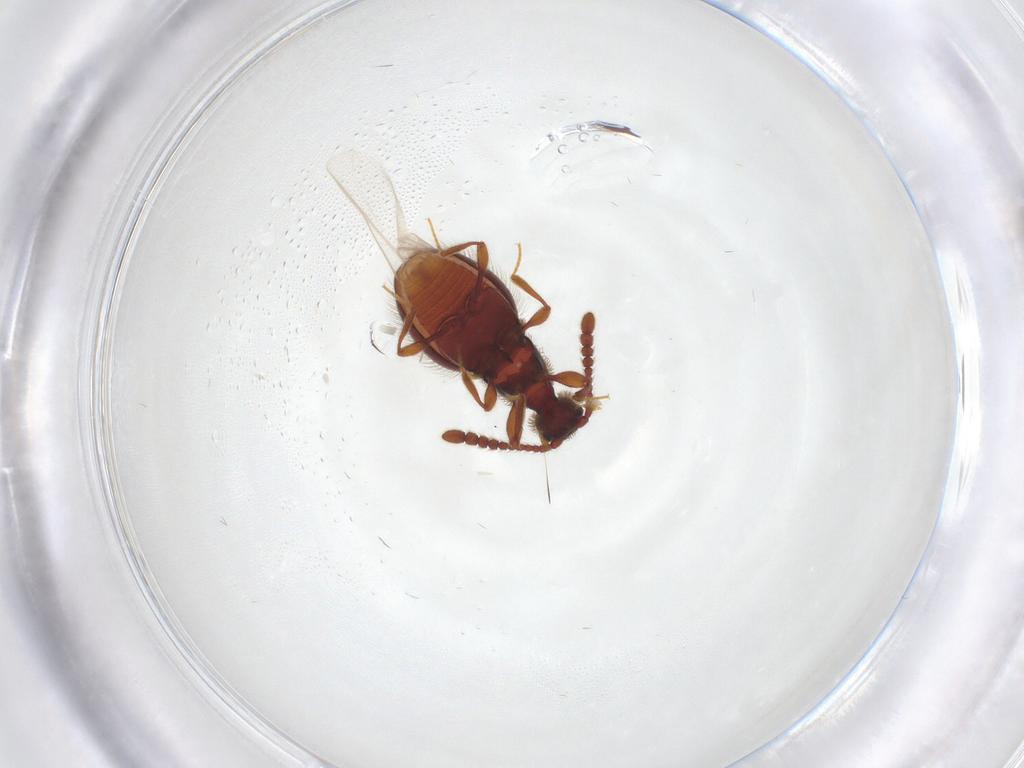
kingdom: Animalia
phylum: Arthropoda
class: Insecta
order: Coleoptera
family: Staphylinidae
